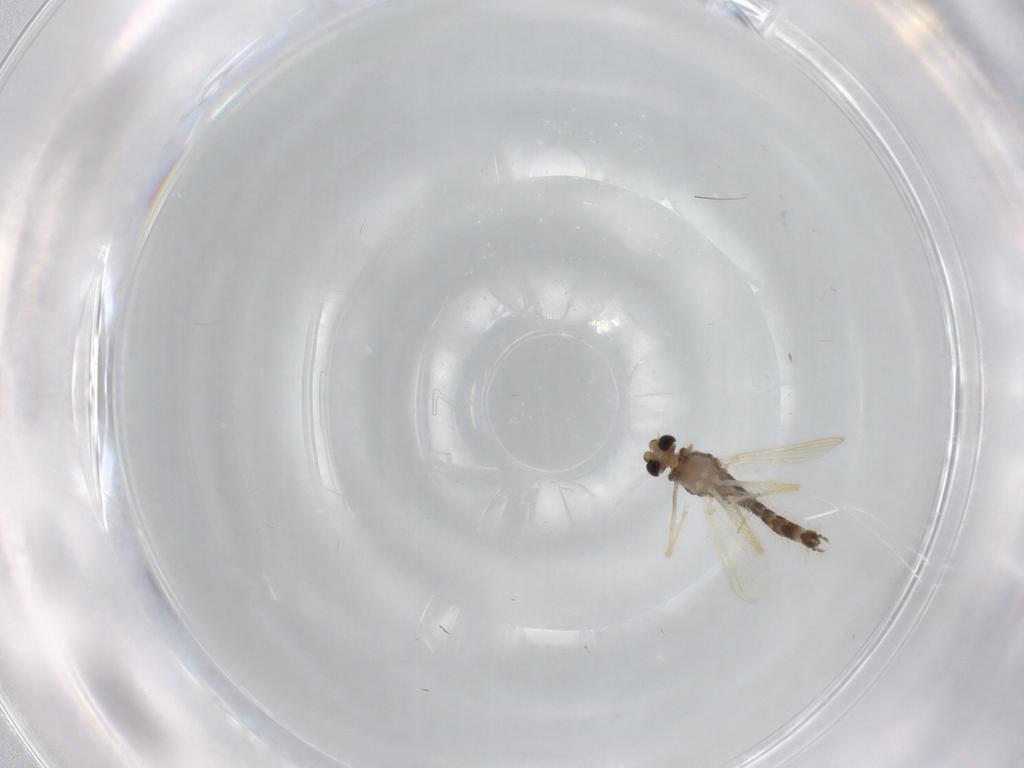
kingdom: Animalia
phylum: Arthropoda
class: Insecta
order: Diptera
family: Chironomidae
